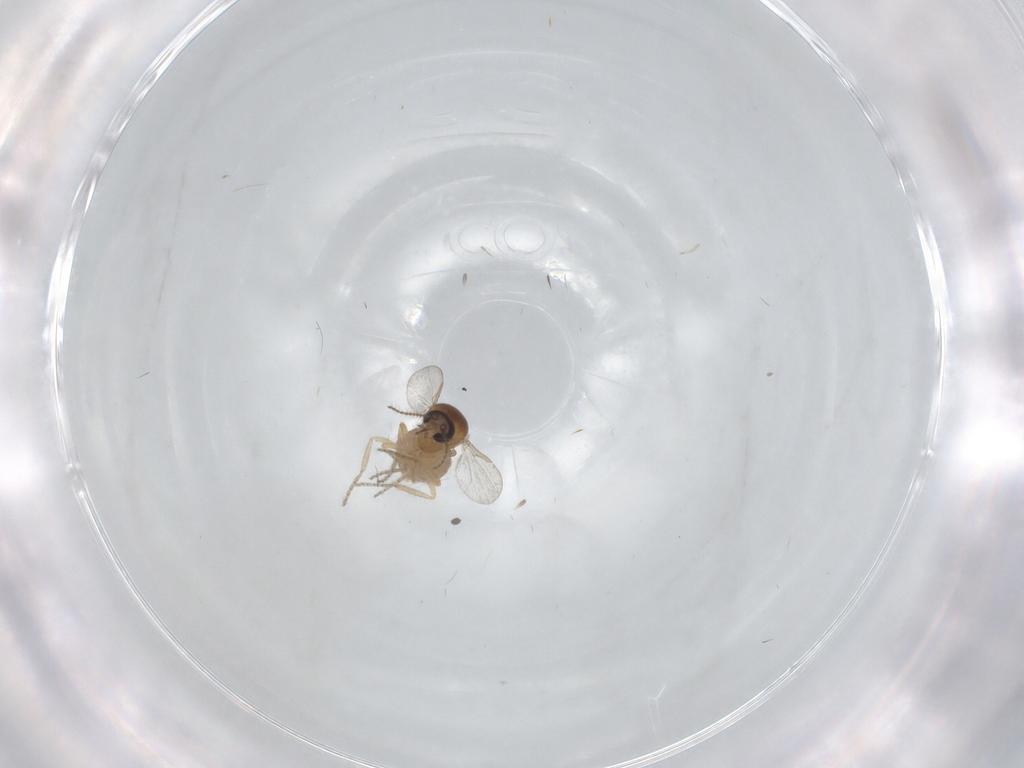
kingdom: Animalia
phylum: Arthropoda
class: Insecta
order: Diptera
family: Ceratopogonidae
